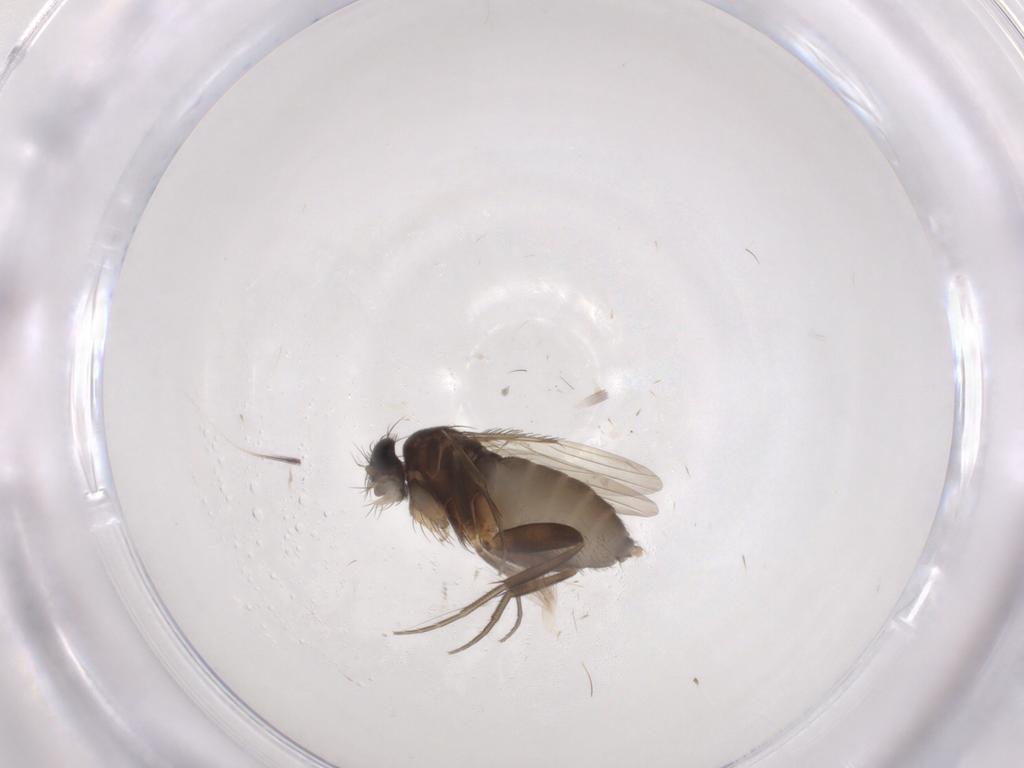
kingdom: Animalia
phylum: Arthropoda
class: Insecta
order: Diptera
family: Phoridae
